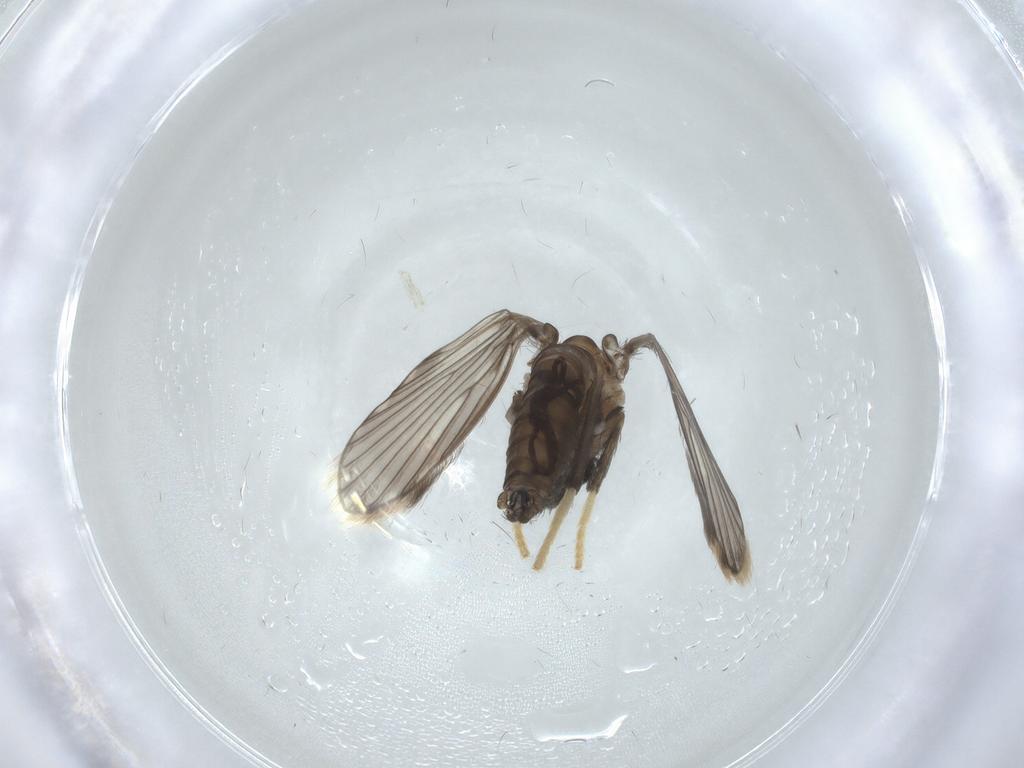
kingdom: Animalia
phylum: Arthropoda
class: Insecta
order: Diptera
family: Psychodidae
